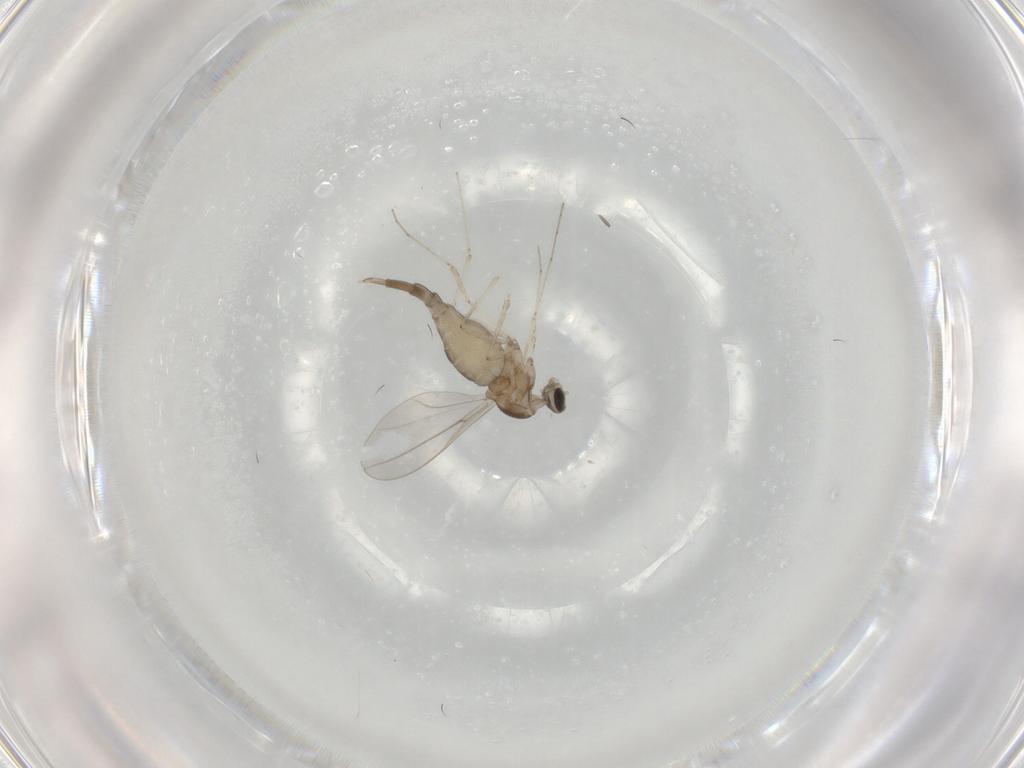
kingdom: Animalia
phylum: Arthropoda
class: Insecta
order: Diptera
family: Cecidomyiidae
